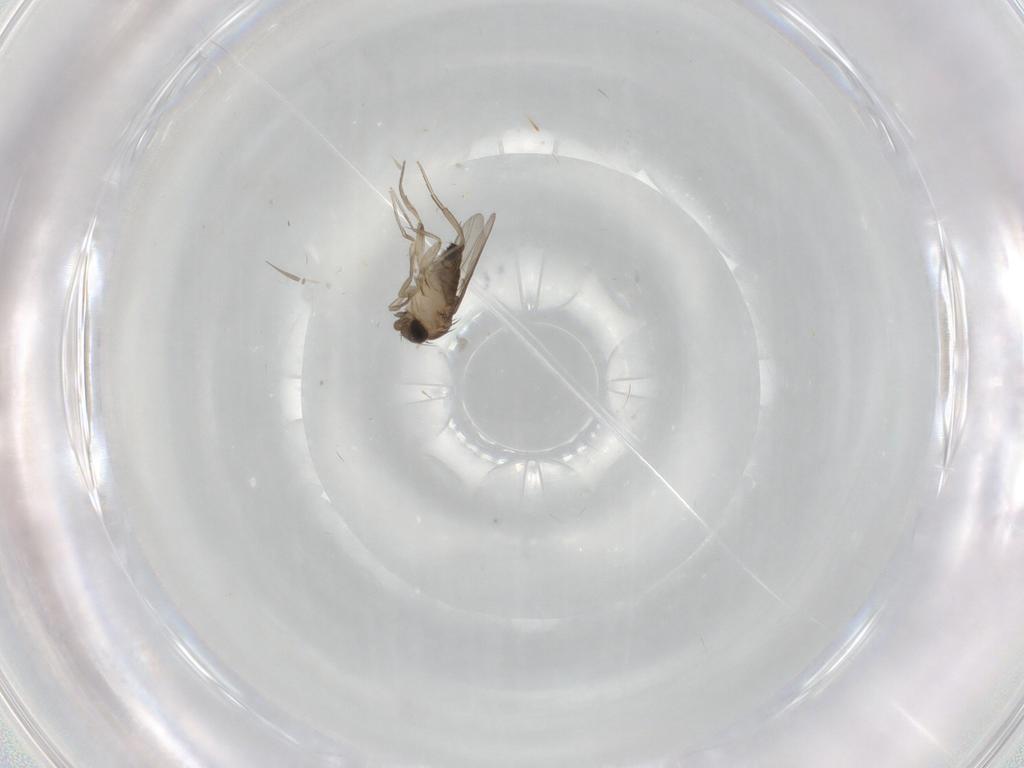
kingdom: Animalia
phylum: Arthropoda
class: Insecta
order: Diptera
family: Phoridae
